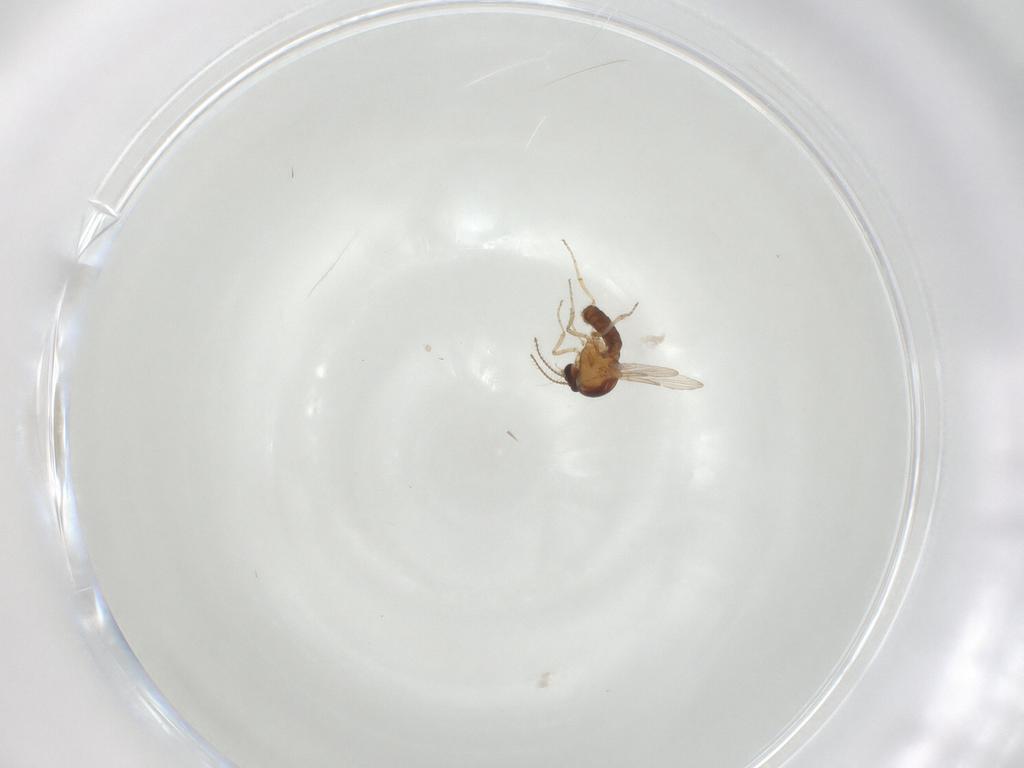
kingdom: Animalia
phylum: Arthropoda
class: Insecta
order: Diptera
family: Ceratopogonidae
